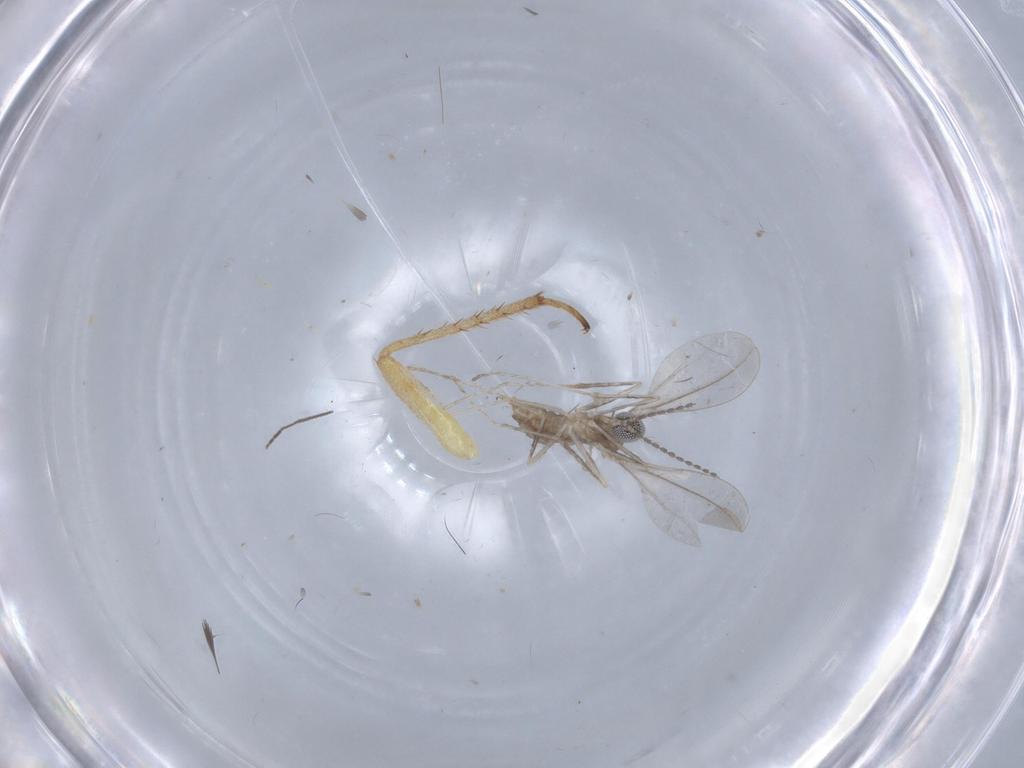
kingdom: Animalia
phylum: Arthropoda
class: Insecta
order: Diptera
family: Cecidomyiidae
